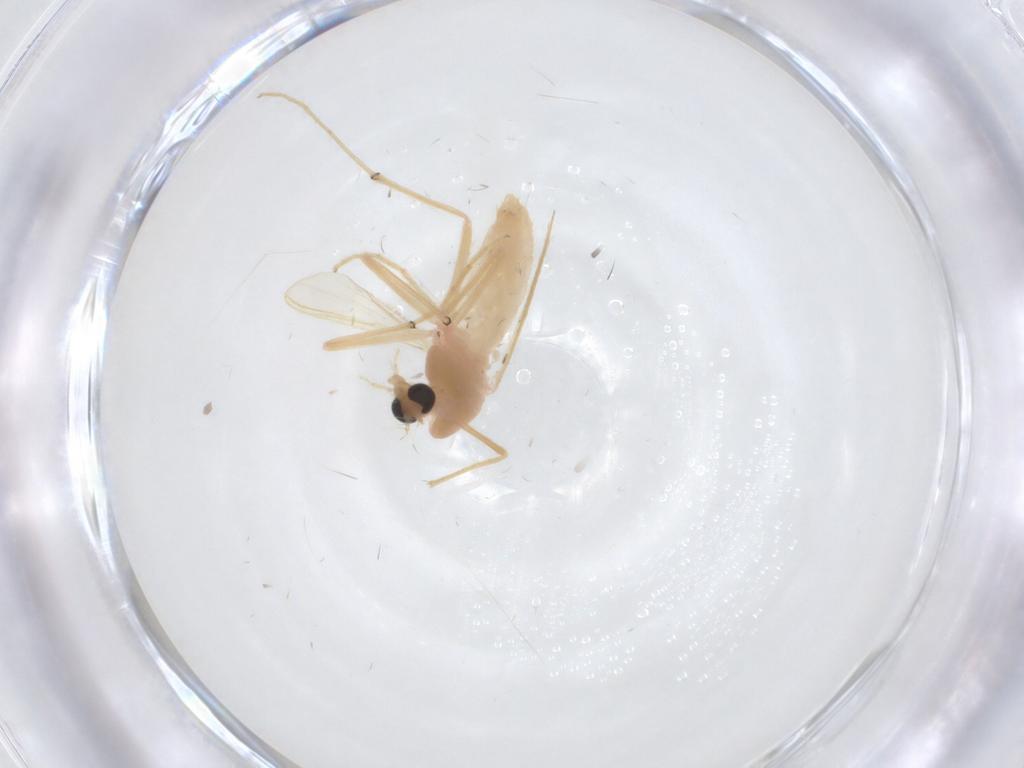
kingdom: Animalia
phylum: Arthropoda
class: Insecta
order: Diptera
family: Chironomidae
